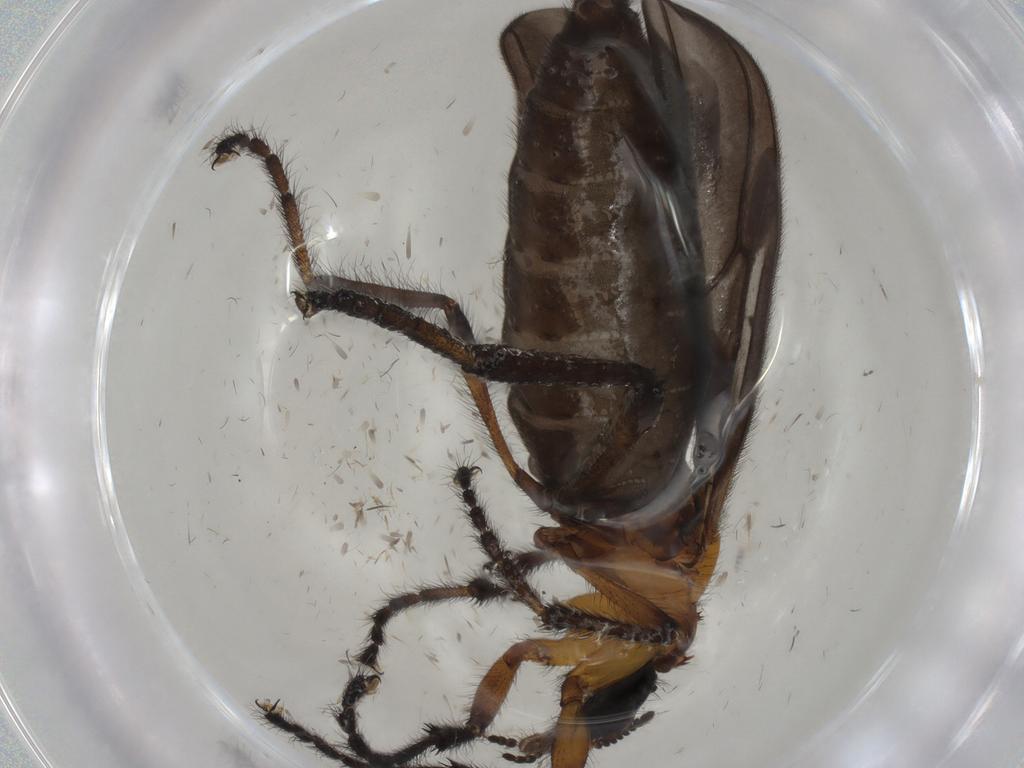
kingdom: Animalia
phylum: Arthropoda
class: Insecta
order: Diptera
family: Bibionidae
